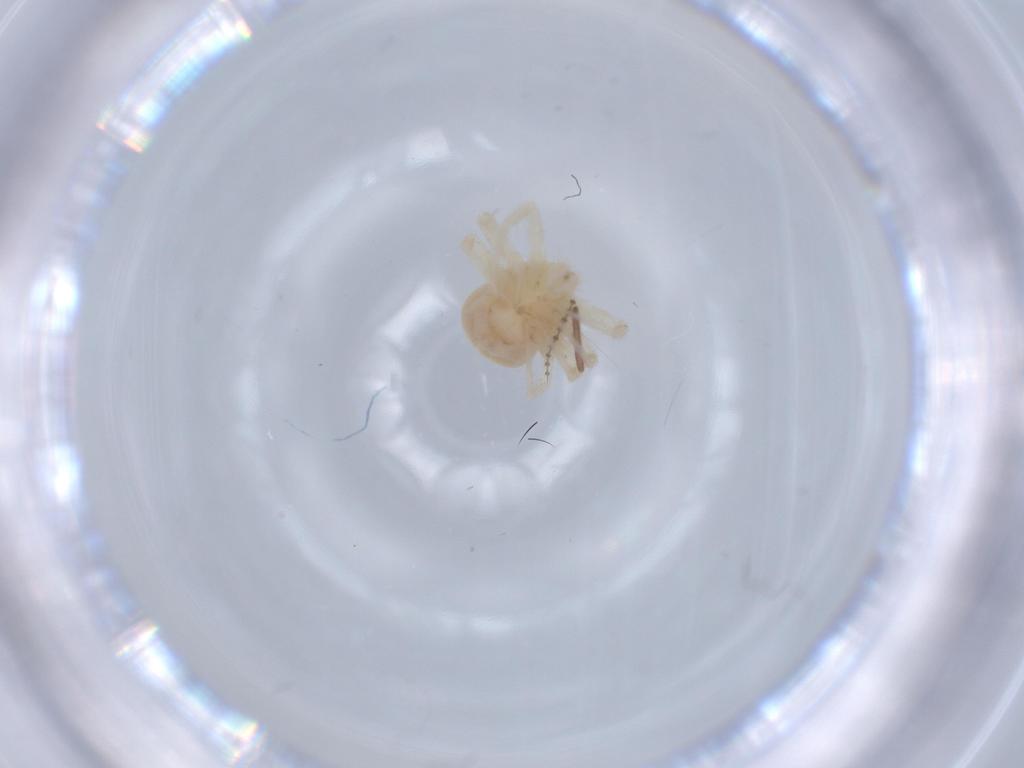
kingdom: Animalia
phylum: Arthropoda
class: Arachnida
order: Trombidiformes
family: Anystidae
